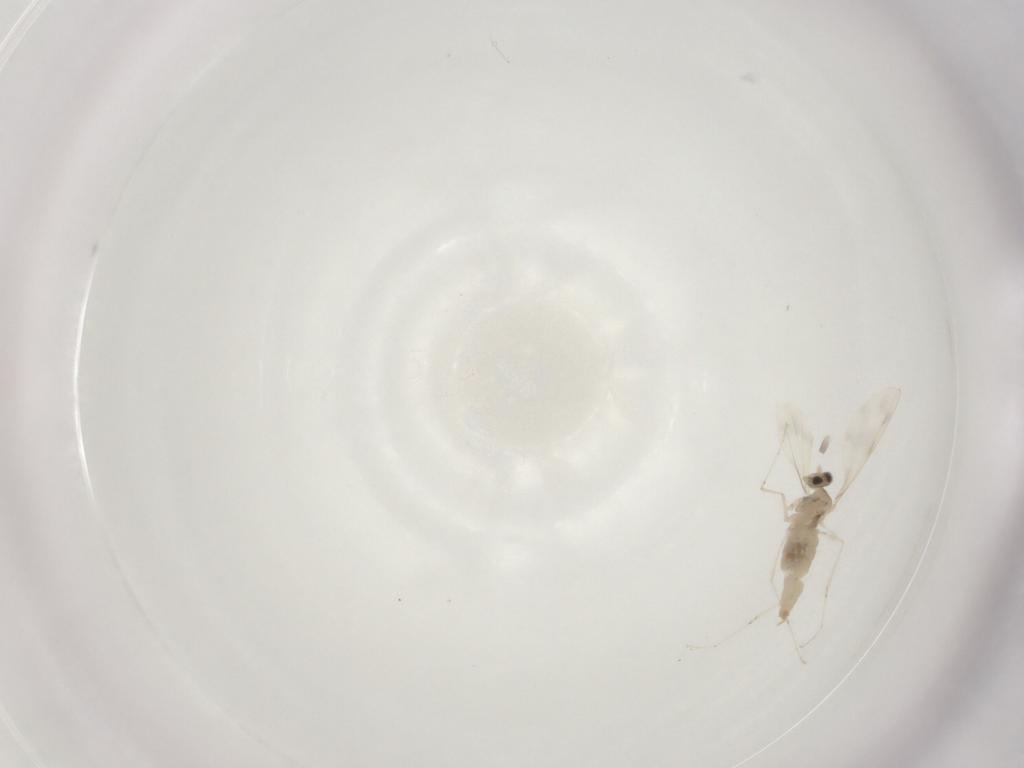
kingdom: Animalia
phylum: Arthropoda
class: Insecta
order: Diptera
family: Cecidomyiidae
